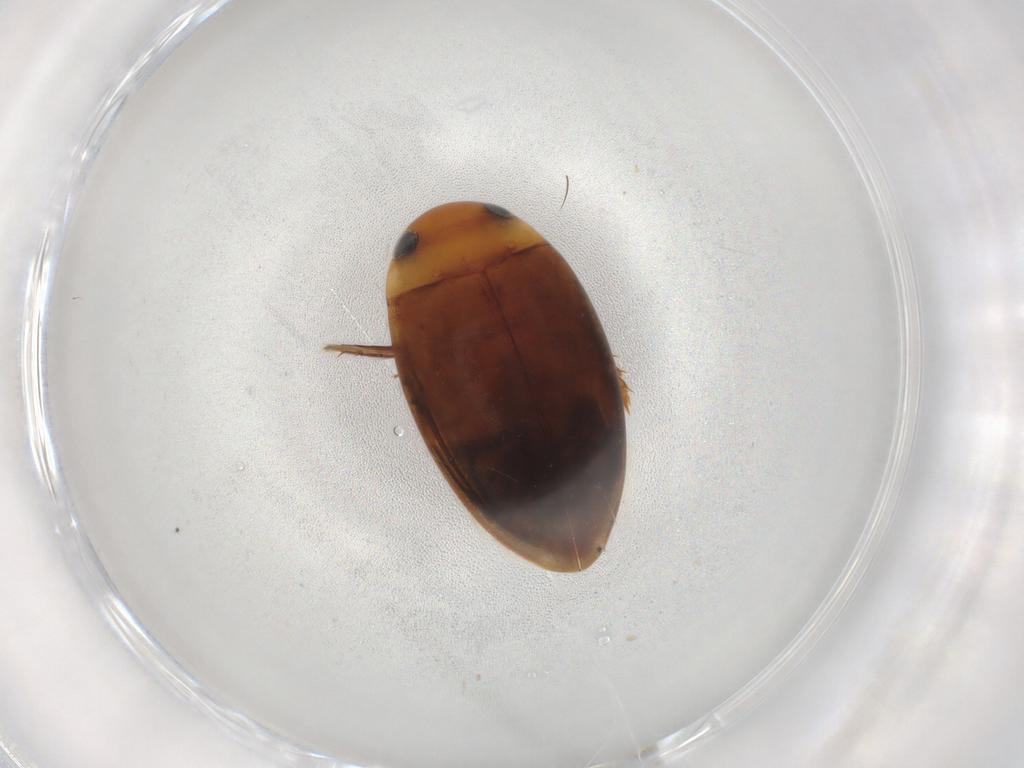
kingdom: Animalia
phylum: Arthropoda
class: Insecta
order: Coleoptera
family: Dytiscidae
